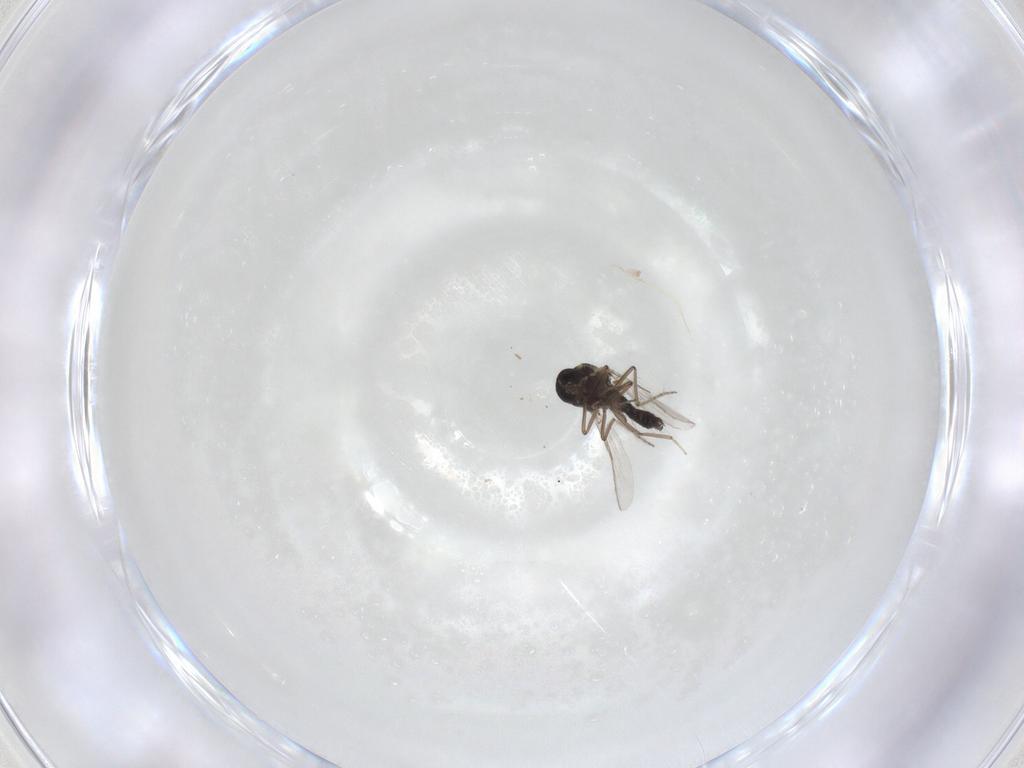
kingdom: Animalia
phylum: Arthropoda
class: Insecta
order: Diptera
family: Ceratopogonidae
